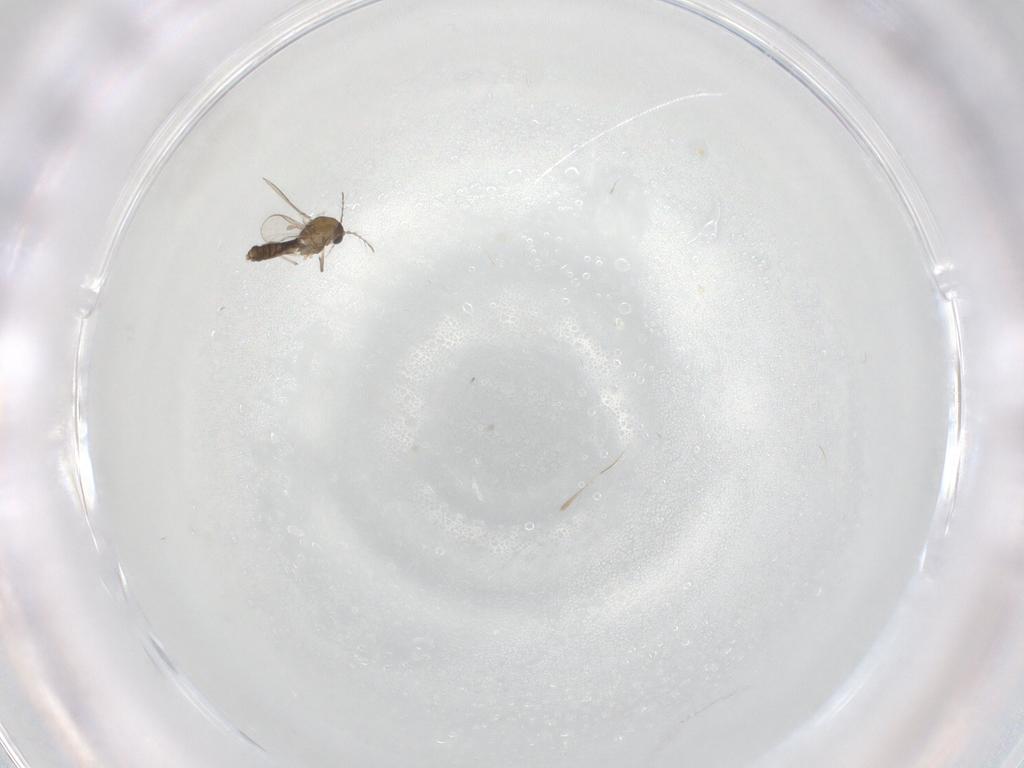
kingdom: Animalia
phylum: Arthropoda
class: Insecta
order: Diptera
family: Chironomidae
